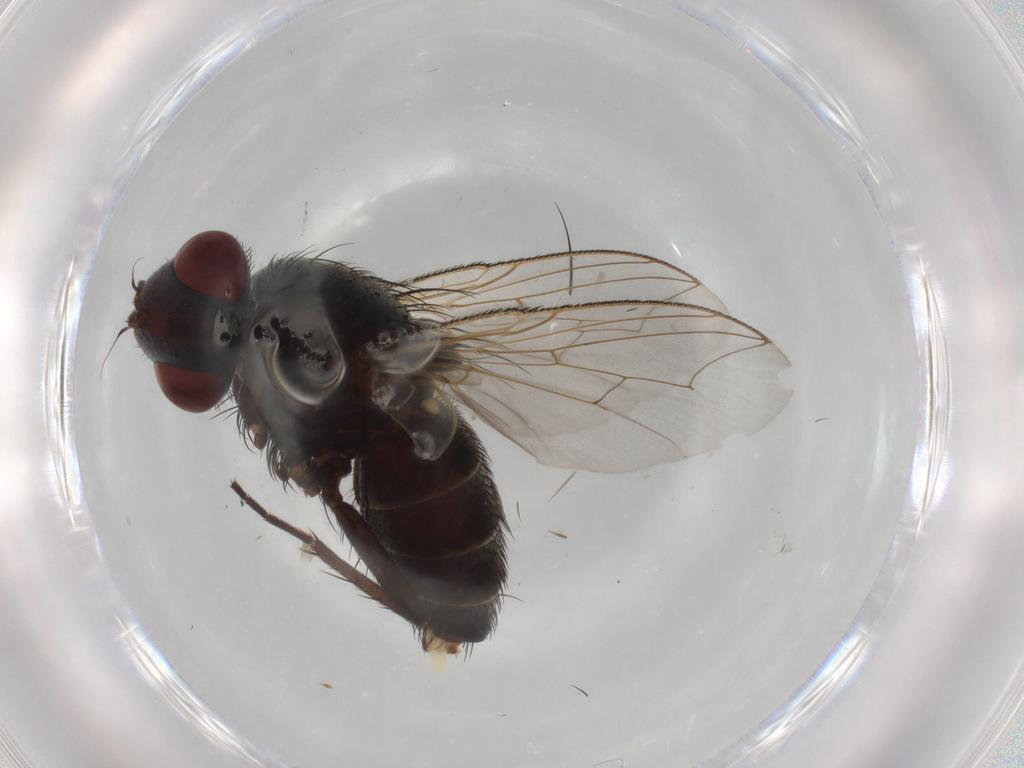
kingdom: Animalia
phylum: Arthropoda
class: Insecta
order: Diptera
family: Sarcophagidae
